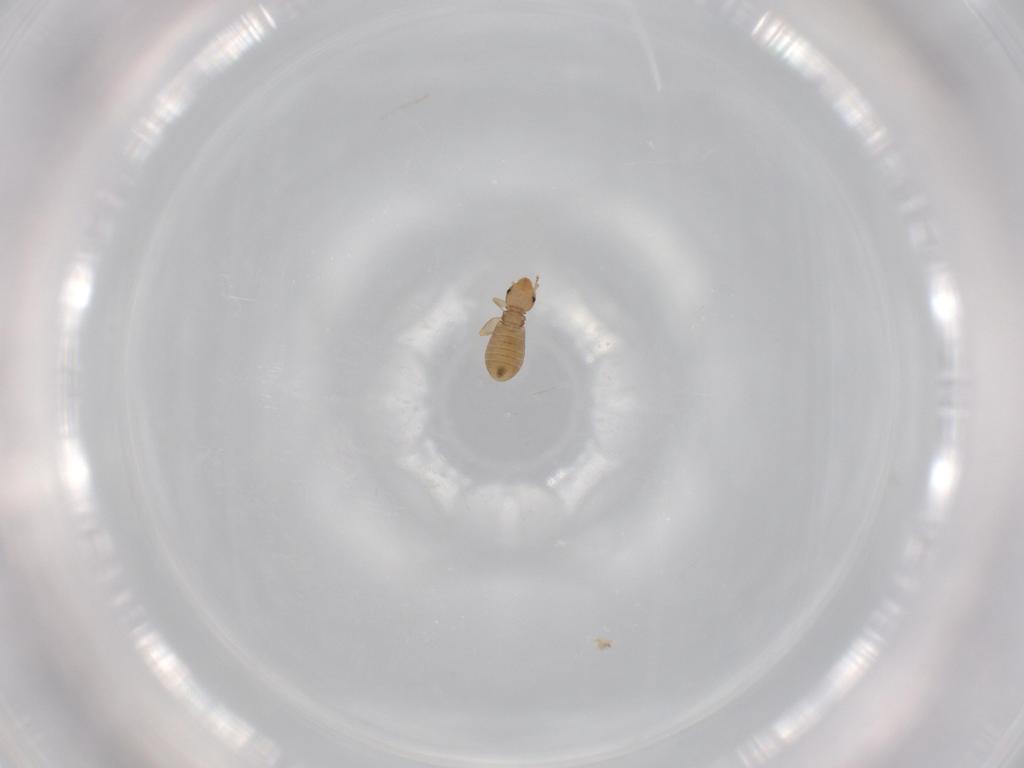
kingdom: Animalia
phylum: Arthropoda
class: Insecta
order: Psocodea
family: Liposcelididae
